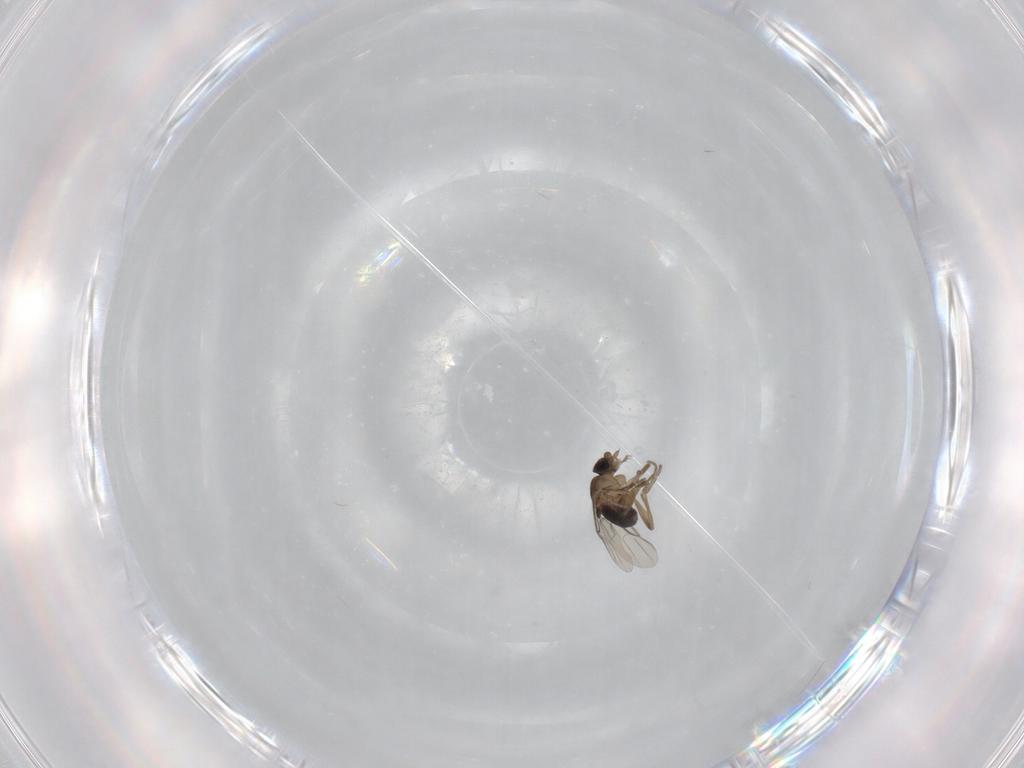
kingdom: Animalia
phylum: Arthropoda
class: Insecta
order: Diptera
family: Phoridae
